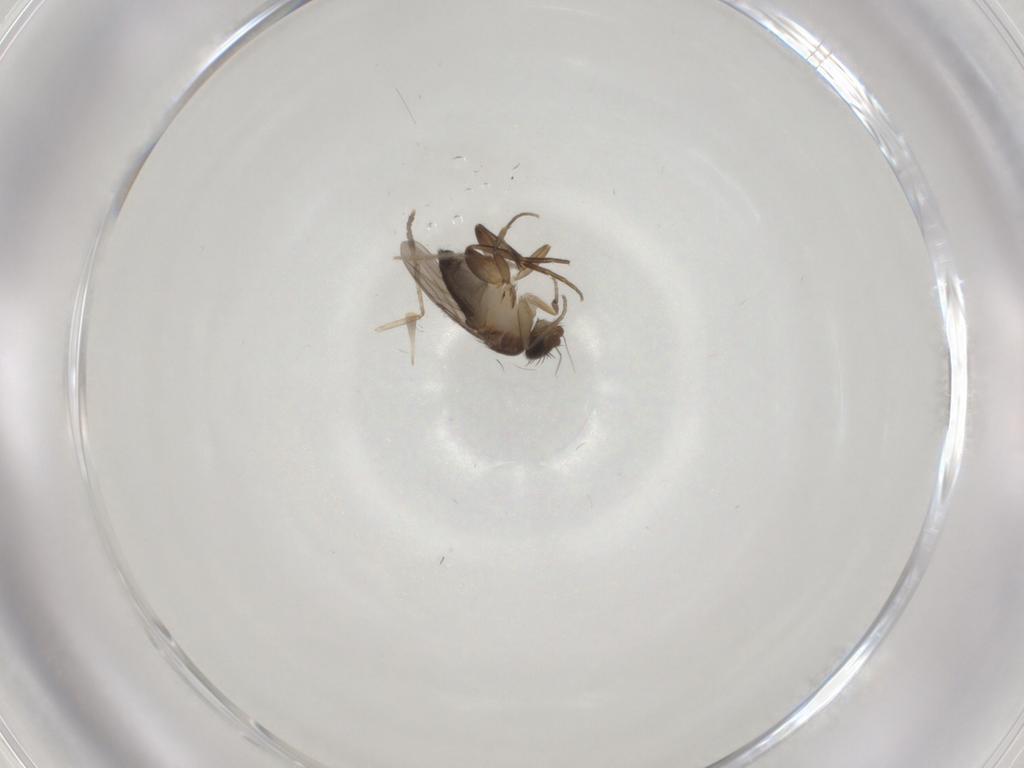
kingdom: Animalia
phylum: Arthropoda
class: Insecta
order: Diptera
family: Phoridae
